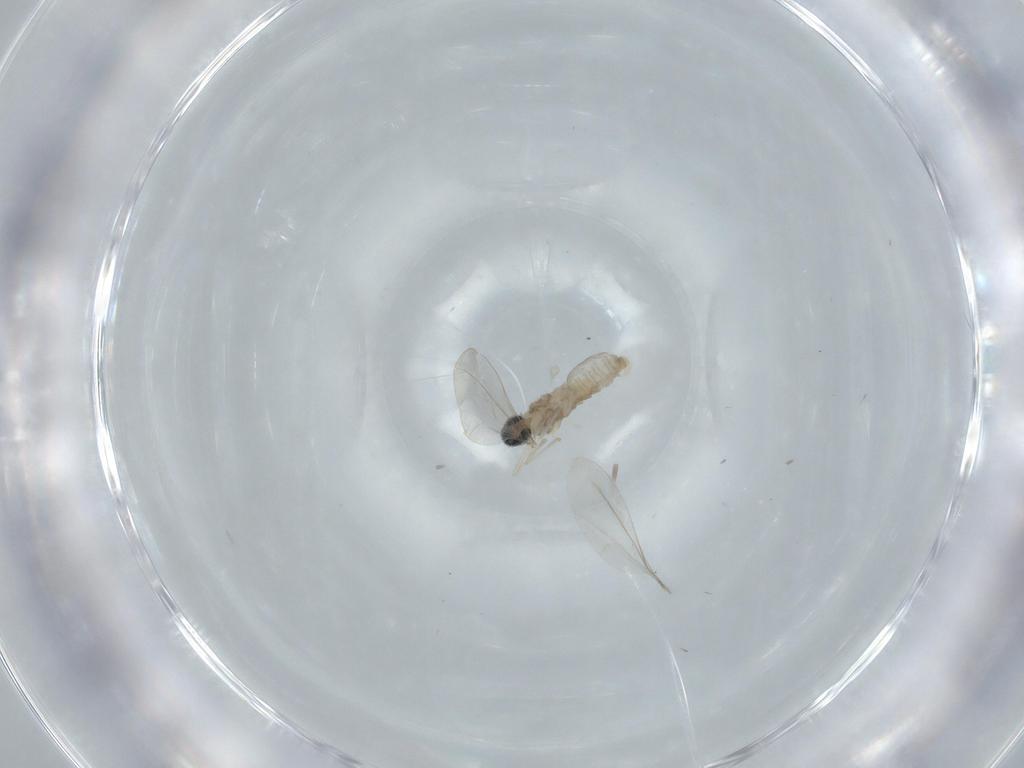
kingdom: Animalia
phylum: Arthropoda
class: Insecta
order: Diptera
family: Cecidomyiidae
